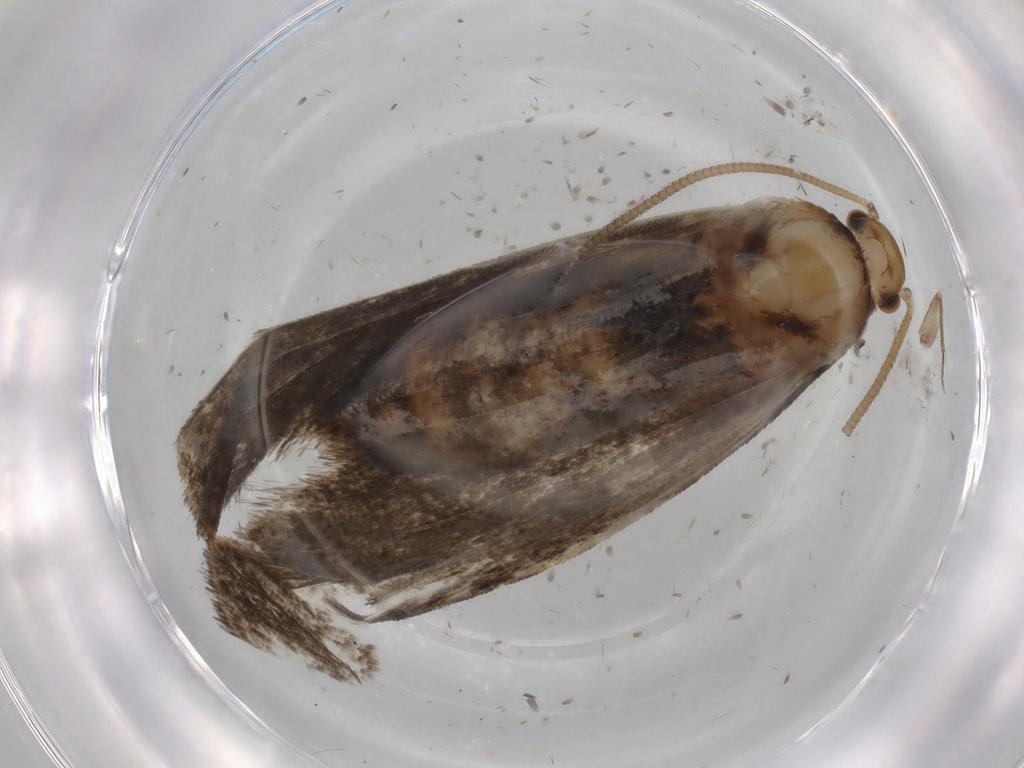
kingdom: Animalia
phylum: Arthropoda
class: Insecta
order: Lepidoptera
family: Dryadaulidae
